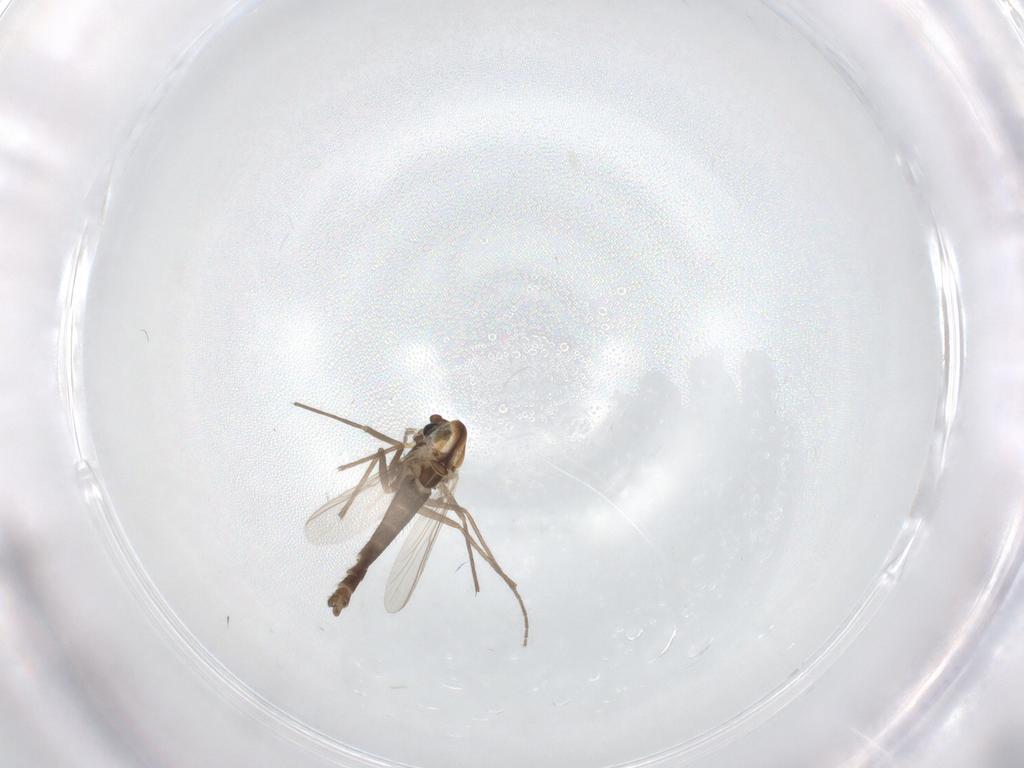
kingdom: Animalia
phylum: Arthropoda
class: Insecta
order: Diptera
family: Chironomidae
